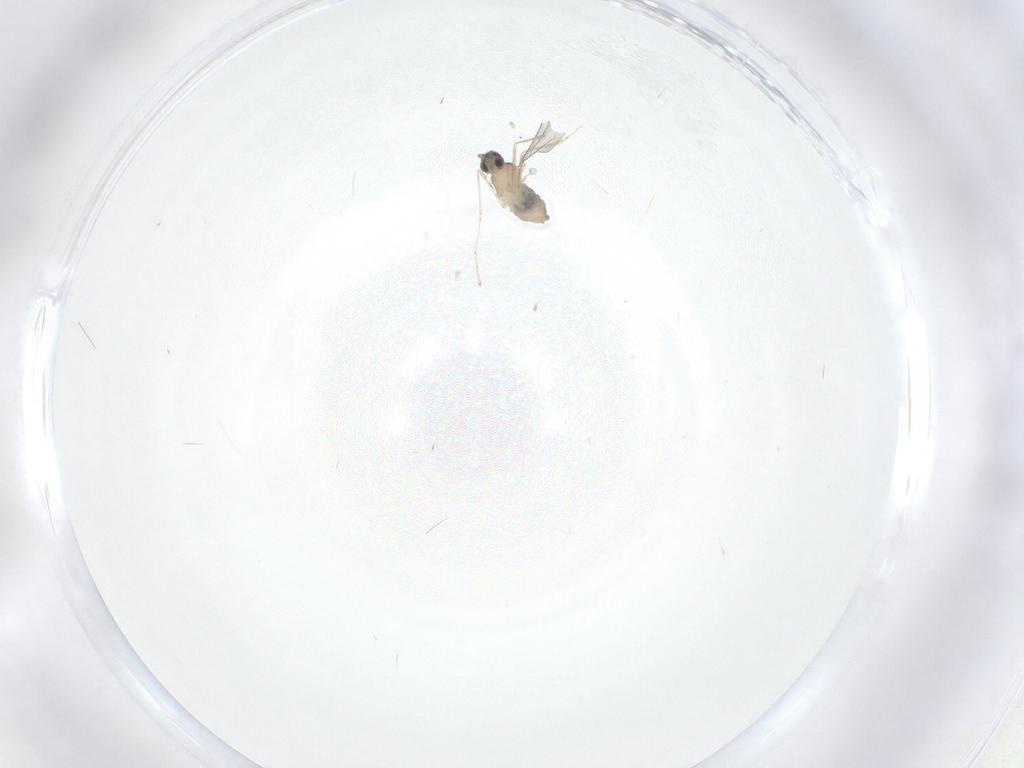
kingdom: Animalia
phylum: Arthropoda
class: Insecta
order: Diptera
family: Cecidomyiidae
